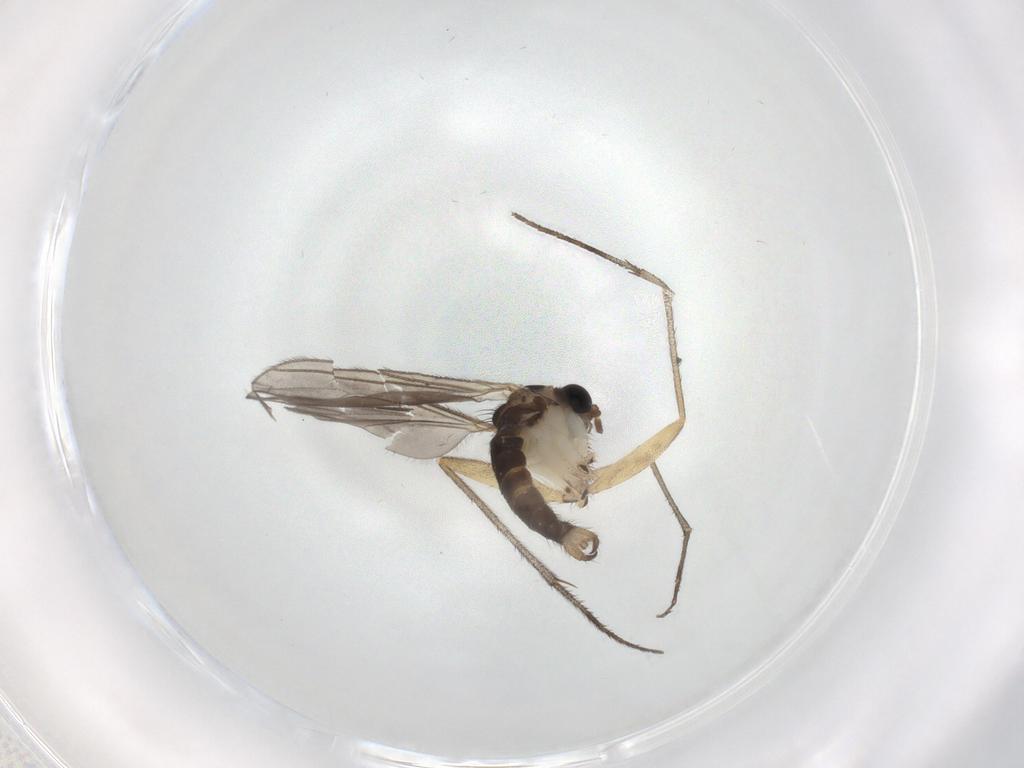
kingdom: Animalia
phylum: Arthropoda
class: Insecta
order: Diptera
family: Sciaridae
